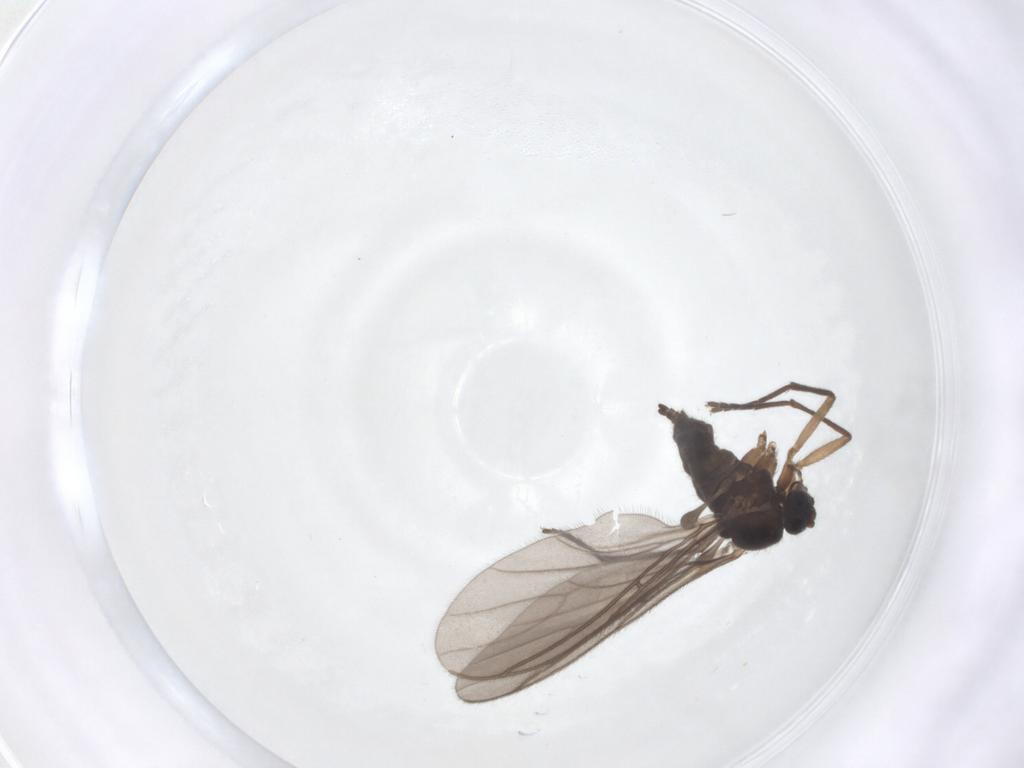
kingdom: Animalia
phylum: Arthropoda
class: Insecta
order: Diptera
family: Sciaridae
